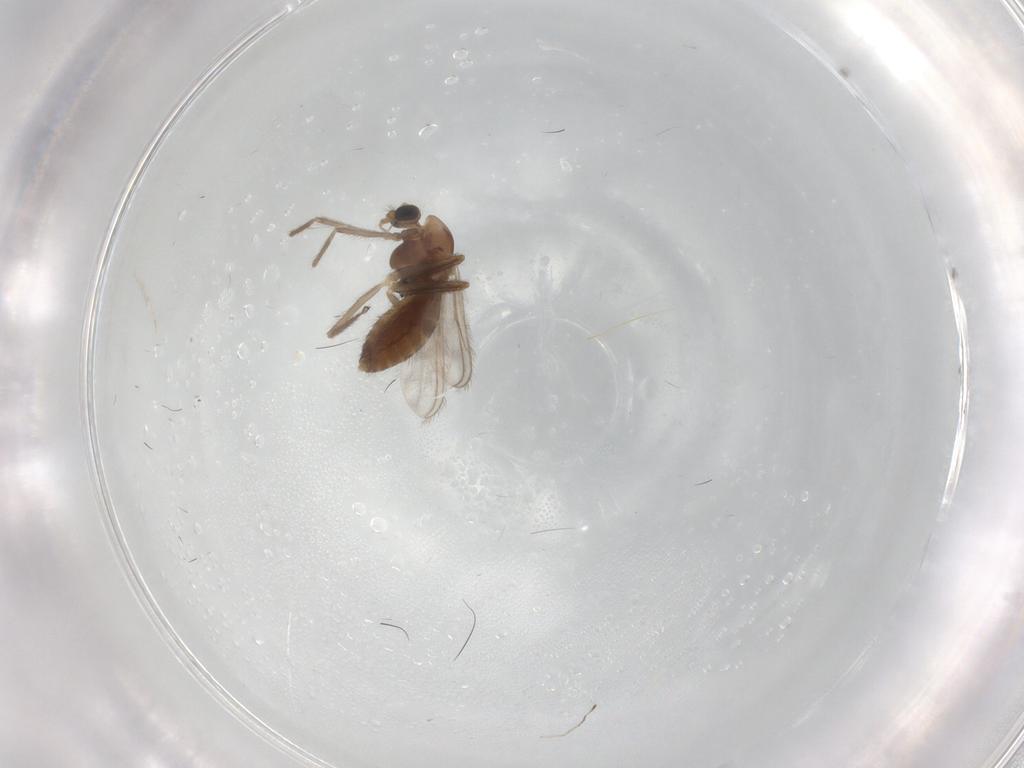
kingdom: Animalia
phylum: Arthropoda
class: Insecta
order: Diptera
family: Chironomidae
